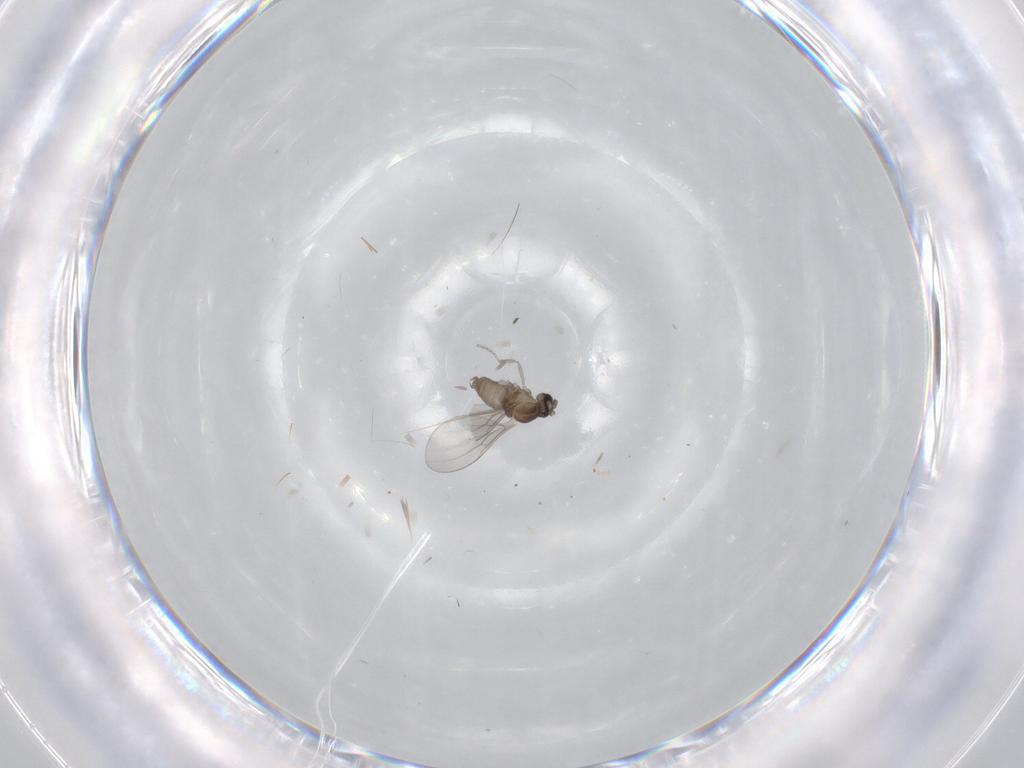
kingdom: Animalia
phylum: Arthropoda
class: Insecta
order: Diptera
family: Cecidomyiidae
